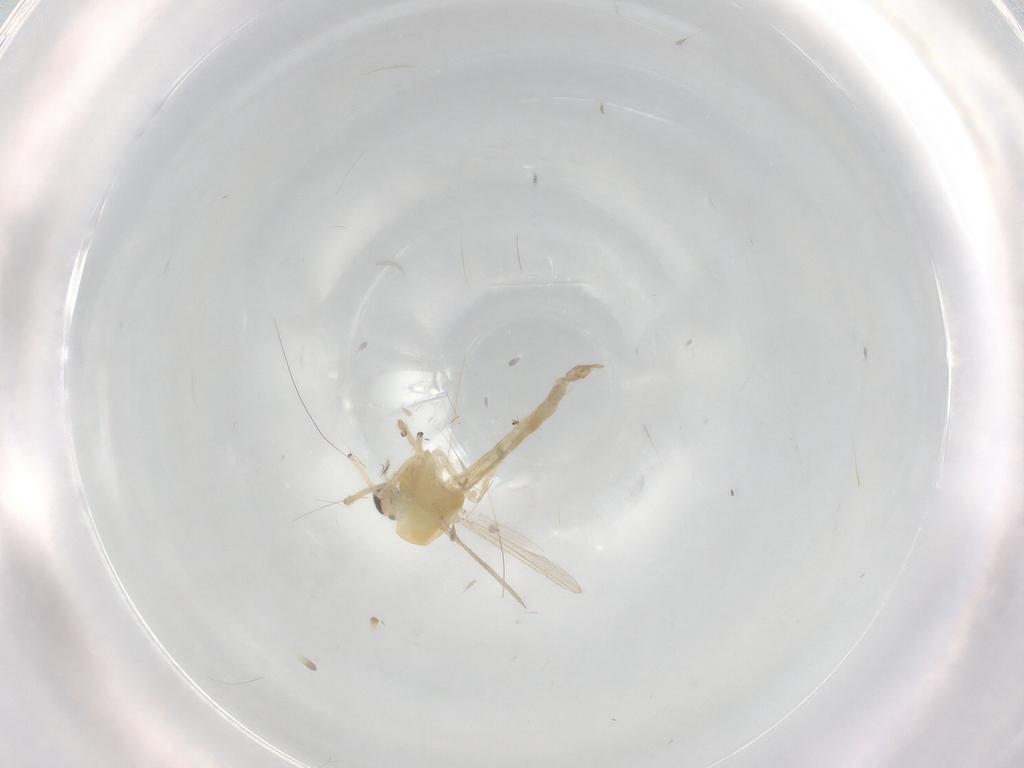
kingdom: Animalia
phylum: Arthropoda
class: Insecta
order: Diptera
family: Chironomidae
